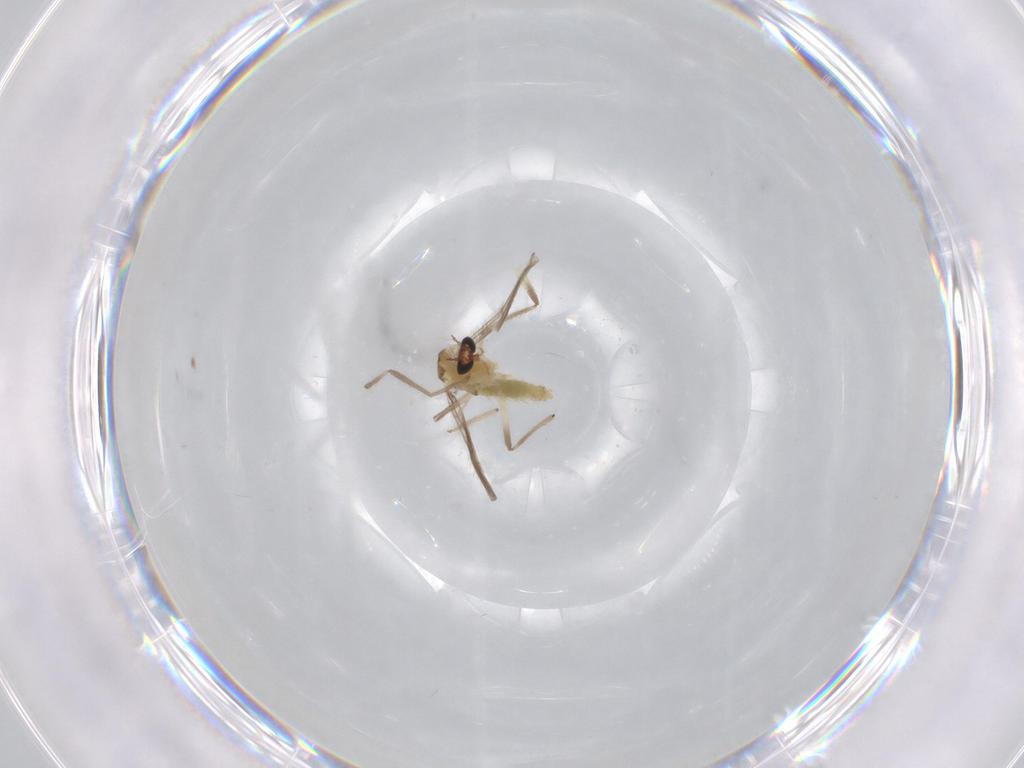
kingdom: Animalia
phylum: Arthropoda
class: Insecta
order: Diptera
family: Chironomidae
